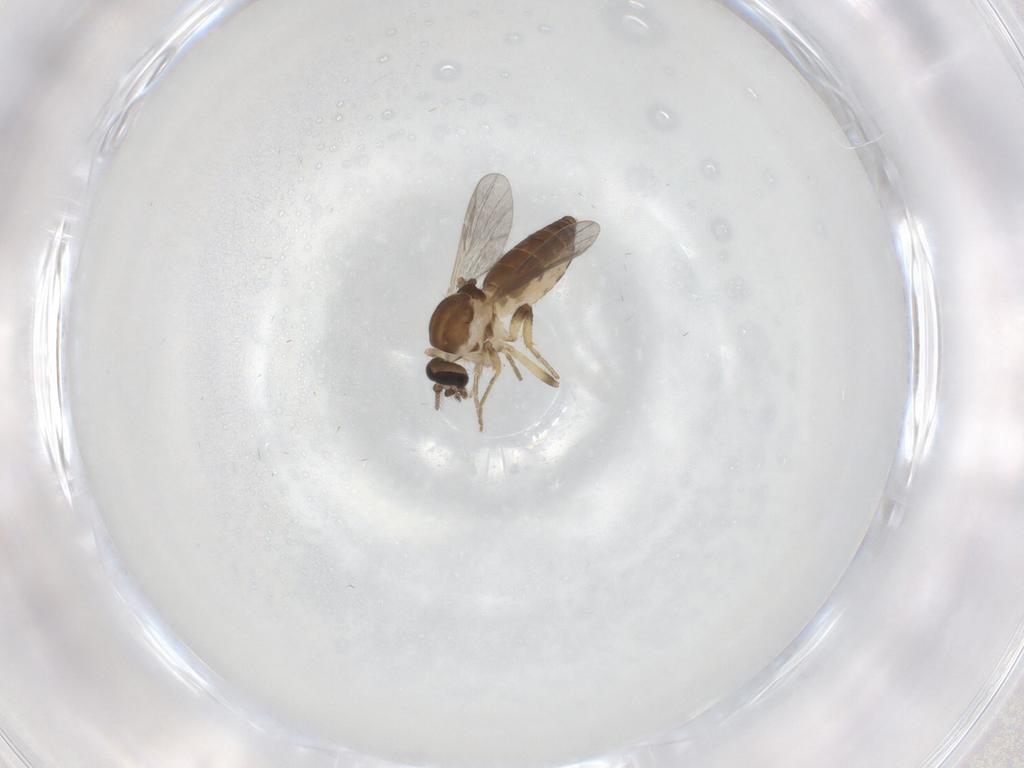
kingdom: Animalia
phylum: Arthropoda
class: Insecta
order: Diptera
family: Ceratopogonidae
